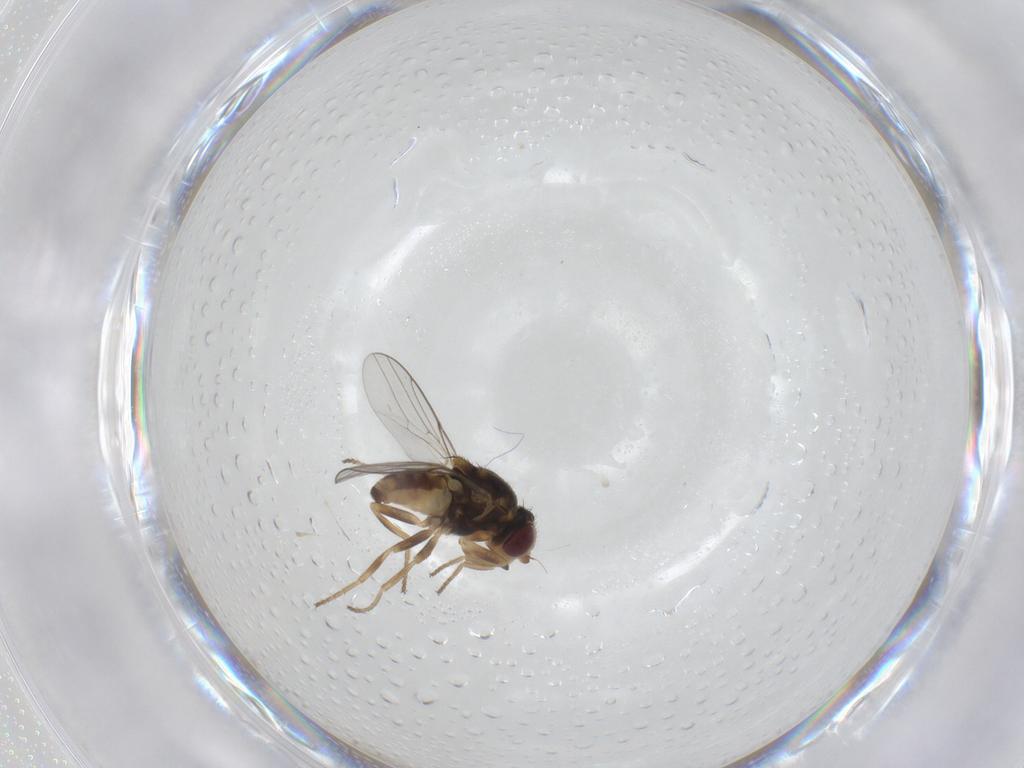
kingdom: Animalia
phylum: Arthropoda
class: Insecta
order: Diptera
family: Chloropidae
